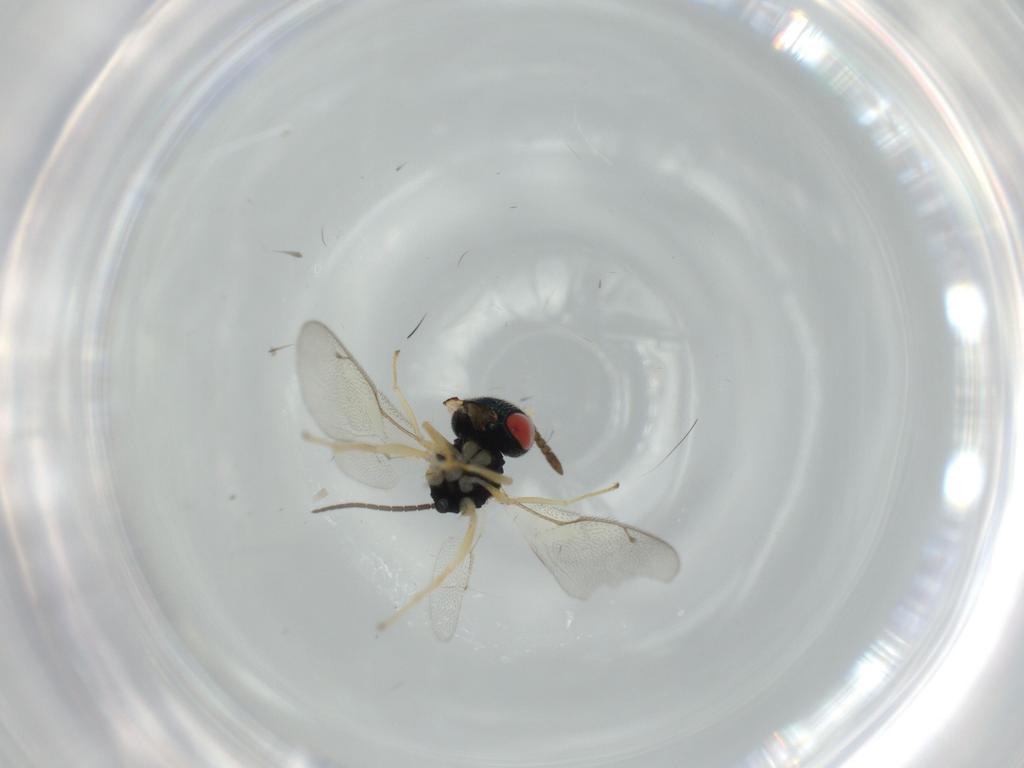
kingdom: Animalia
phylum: Arthropoda
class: Insecta
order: Hymenoptera
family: Pteromalidae
